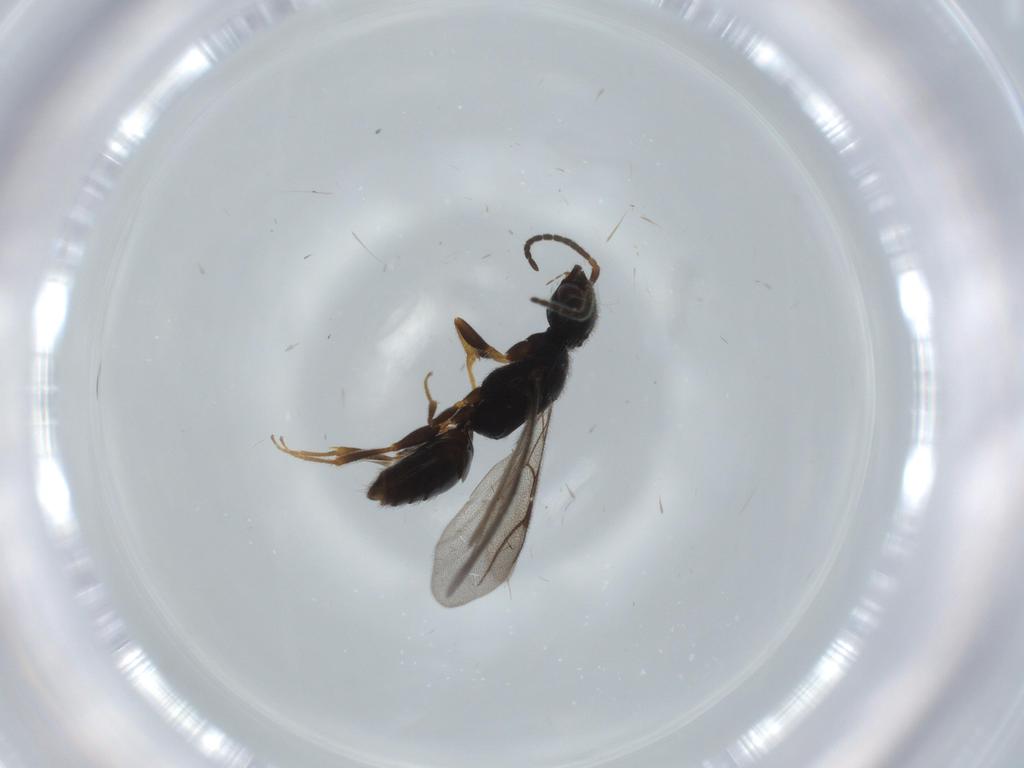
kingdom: Animalia
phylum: Arthropoda
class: Insecta
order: Hymenoptera
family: Bethylidae
